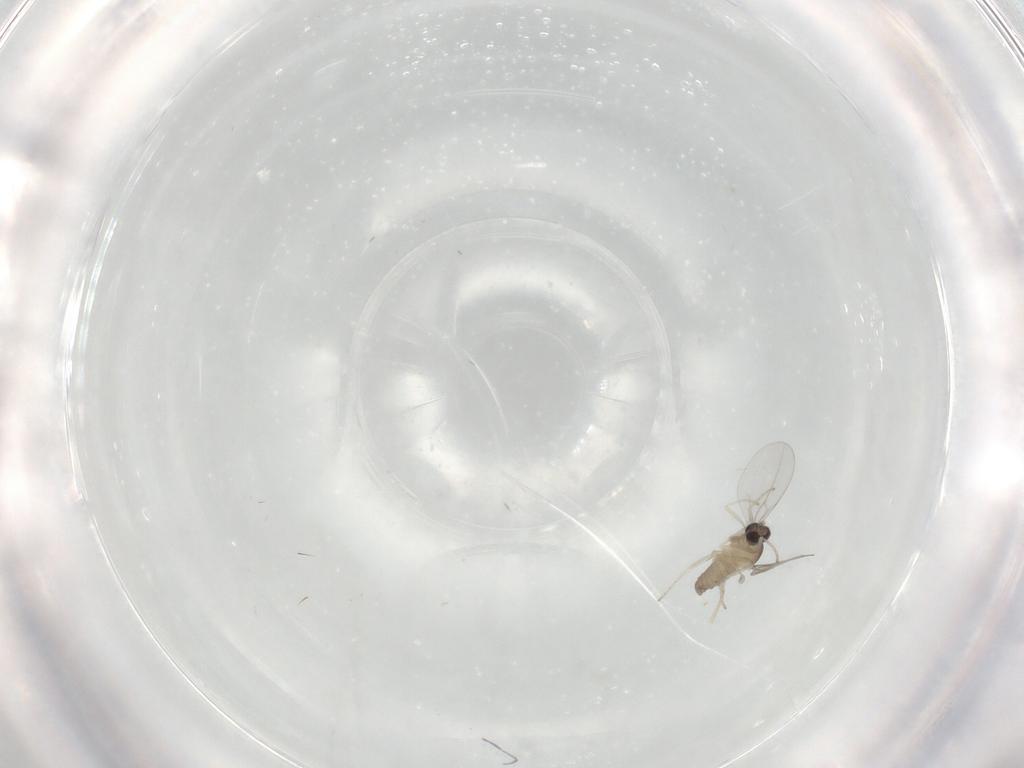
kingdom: Animalia
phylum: Arthropoda
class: Insecta
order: Diptera
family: Cecidomyiidae
